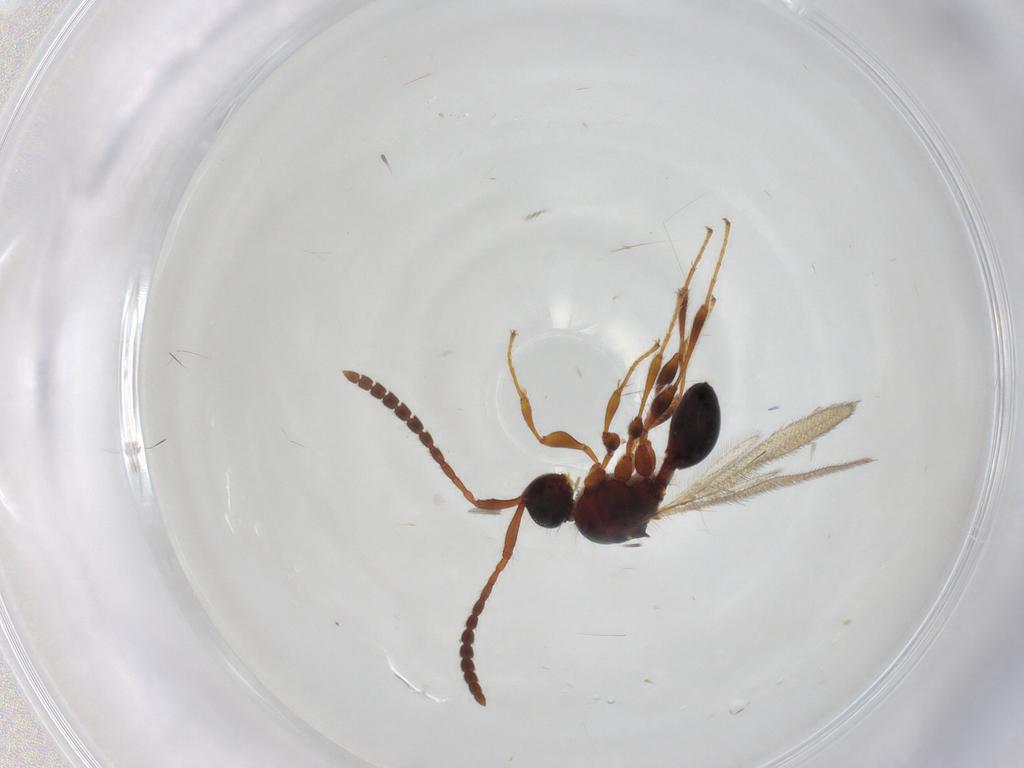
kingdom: Animalia
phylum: Arthropoda
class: Insecta
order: Hymenoptera
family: Diapriidae
